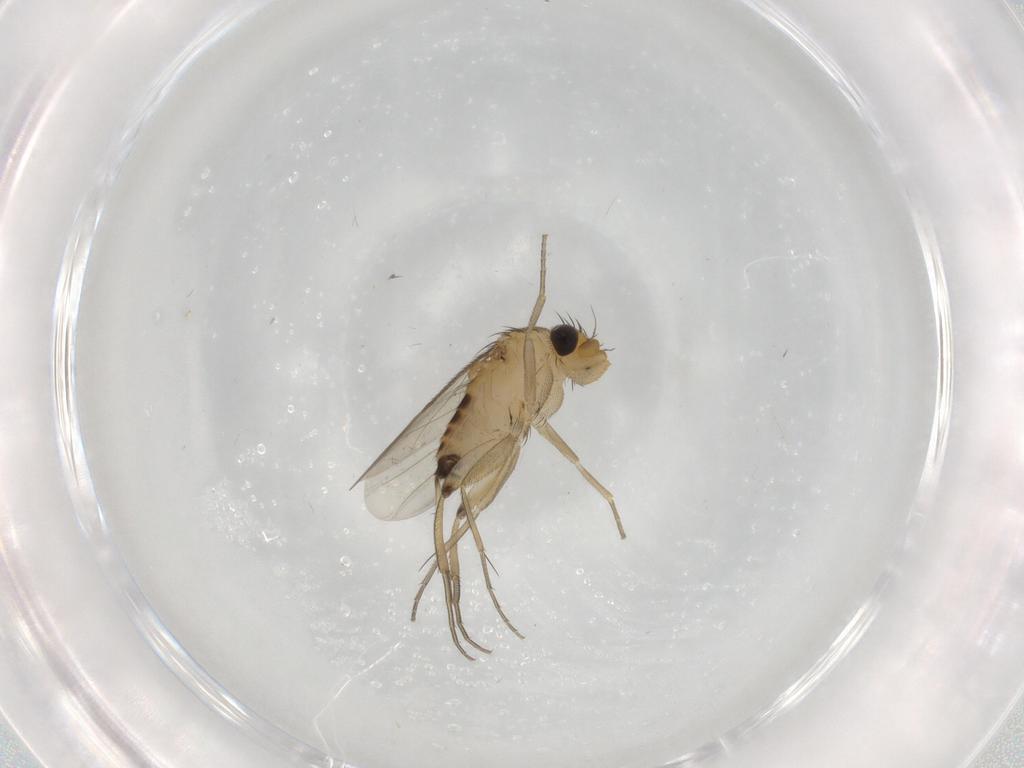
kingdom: Animalia
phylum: Arthropoda
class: Insecta
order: Diptera
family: Phoridae
